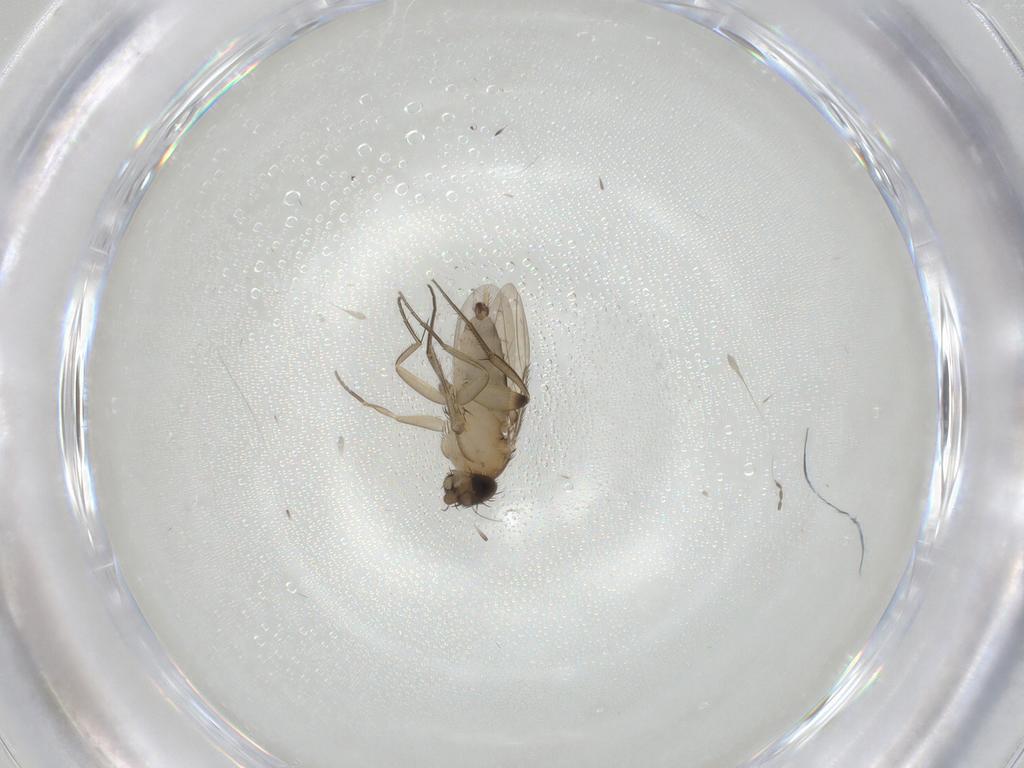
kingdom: Animalia
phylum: Arthropoda
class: Insecta
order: Diptera
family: Phoridae
